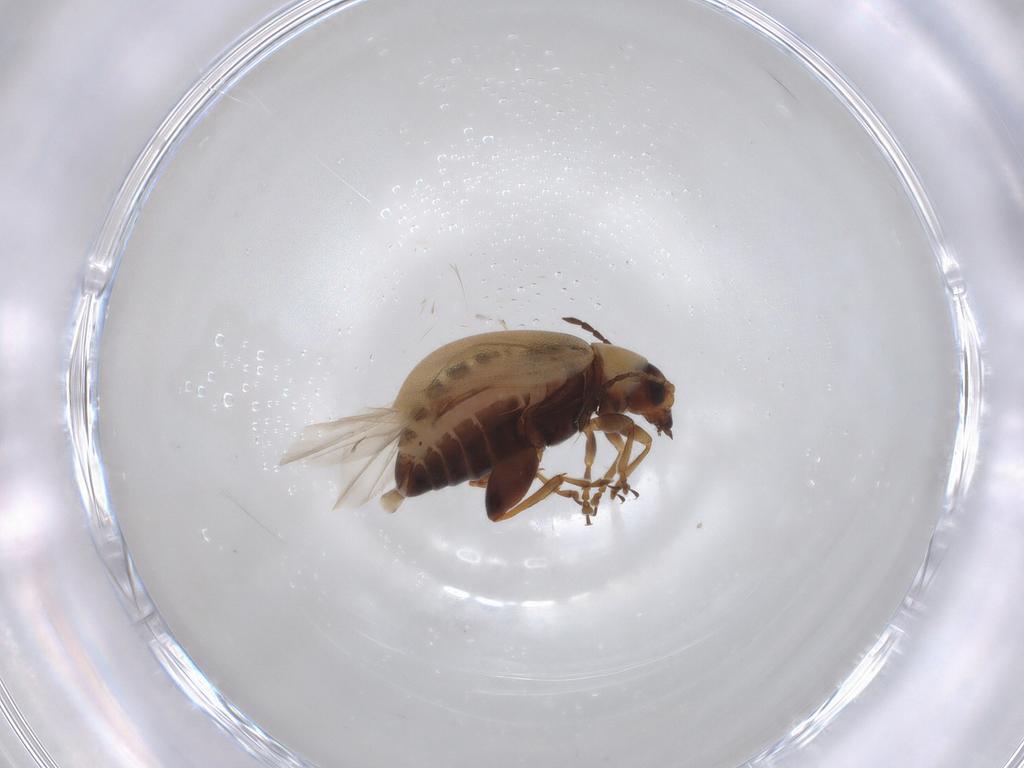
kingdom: Animalia
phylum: Arthropoda
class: Insecta
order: Coleoptera
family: Chrysomelidae
